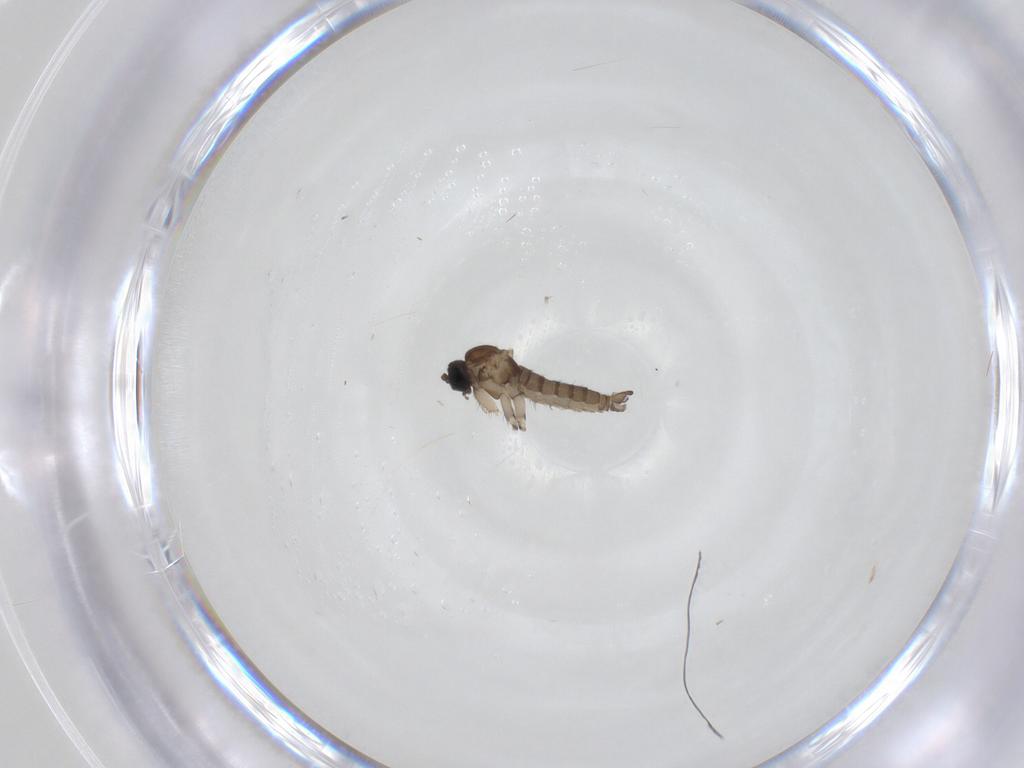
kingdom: Animalia
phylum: Arthropoda
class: Insecta
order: Diptera
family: Sciaridae
